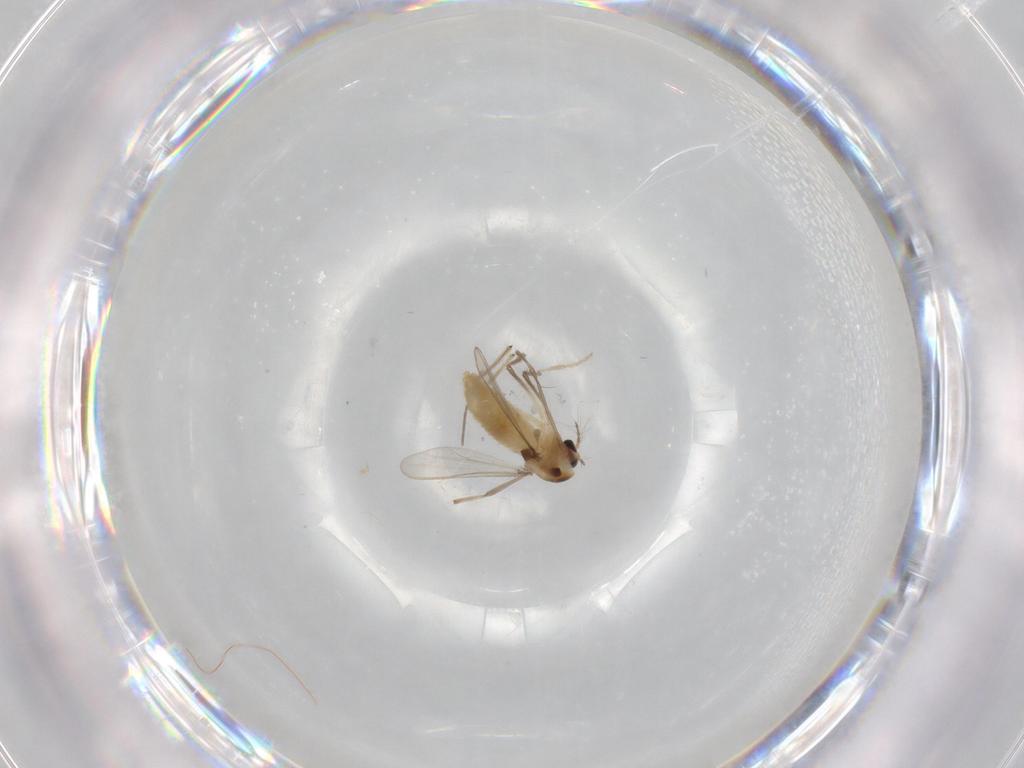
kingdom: Animalia
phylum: Arthropoda
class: Insecta
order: Diptera
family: Chironomidae
